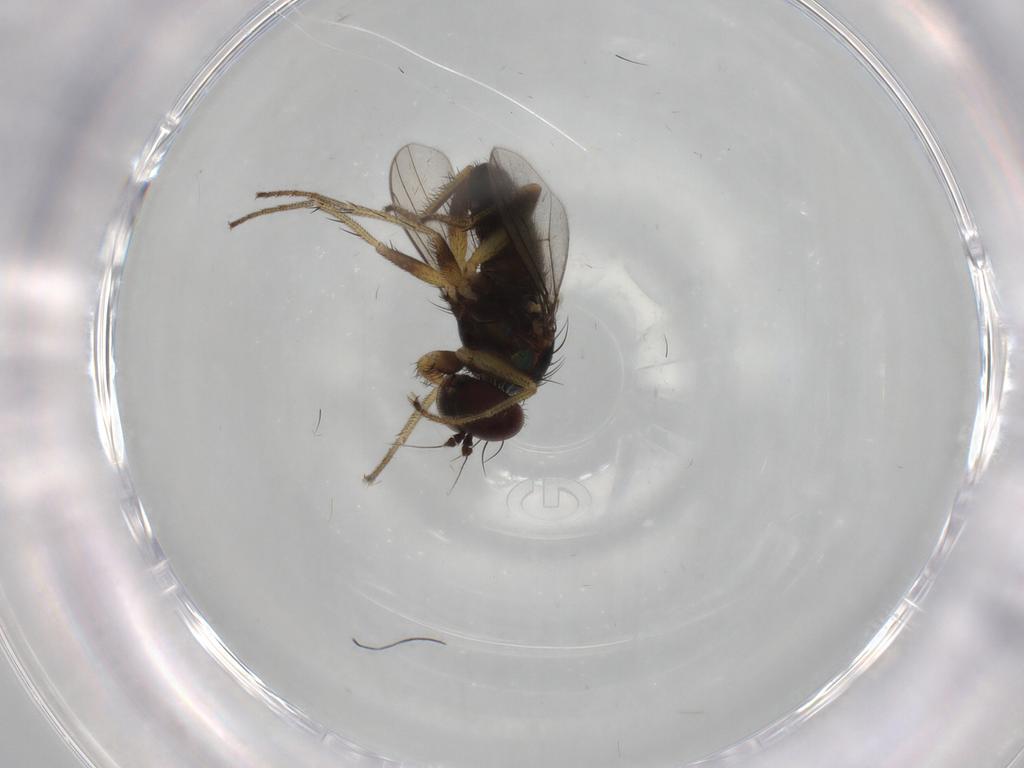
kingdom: Animalia
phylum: Arthropoda
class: Insecta
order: Diptera
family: Dolichopodidae
